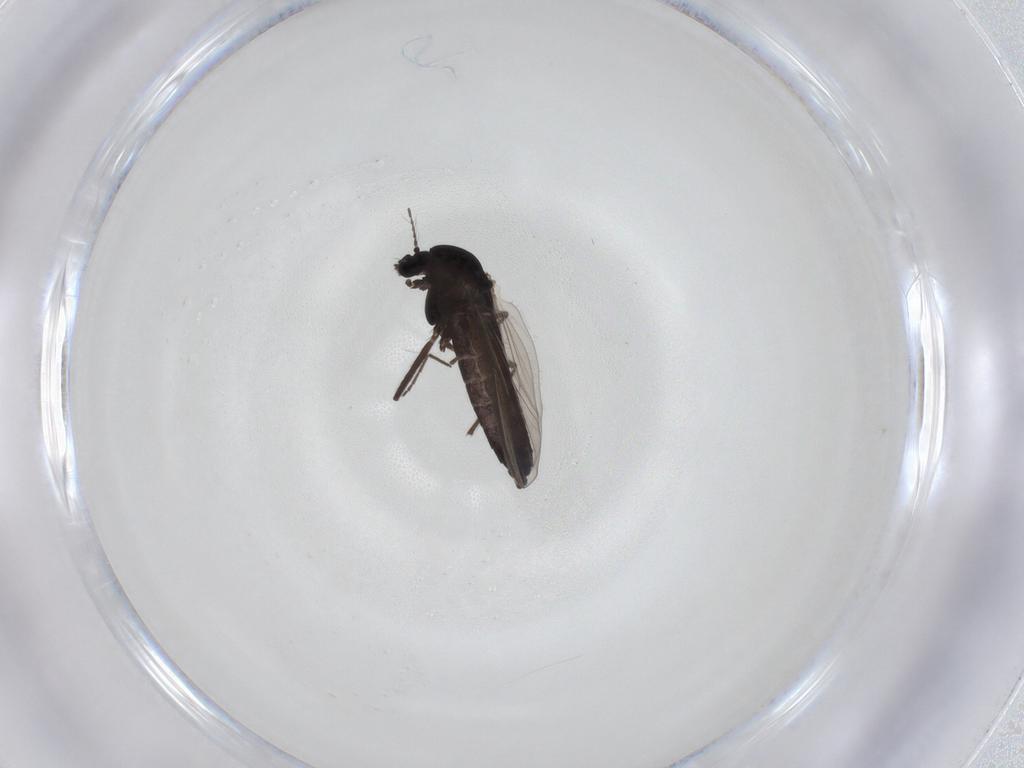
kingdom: Animalia
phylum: Arthropoda
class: Insecta
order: Diptera
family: Chironomidae
